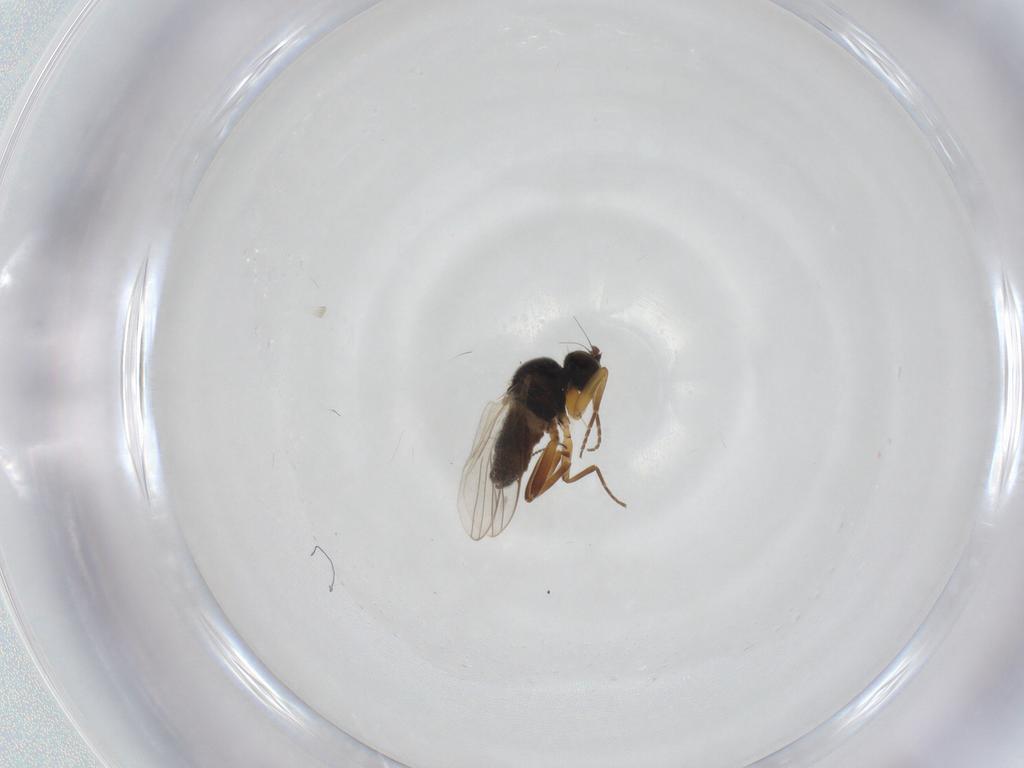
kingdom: Animalia
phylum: Arthropoda
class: Insecta
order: Diptera
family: Hybotidae
